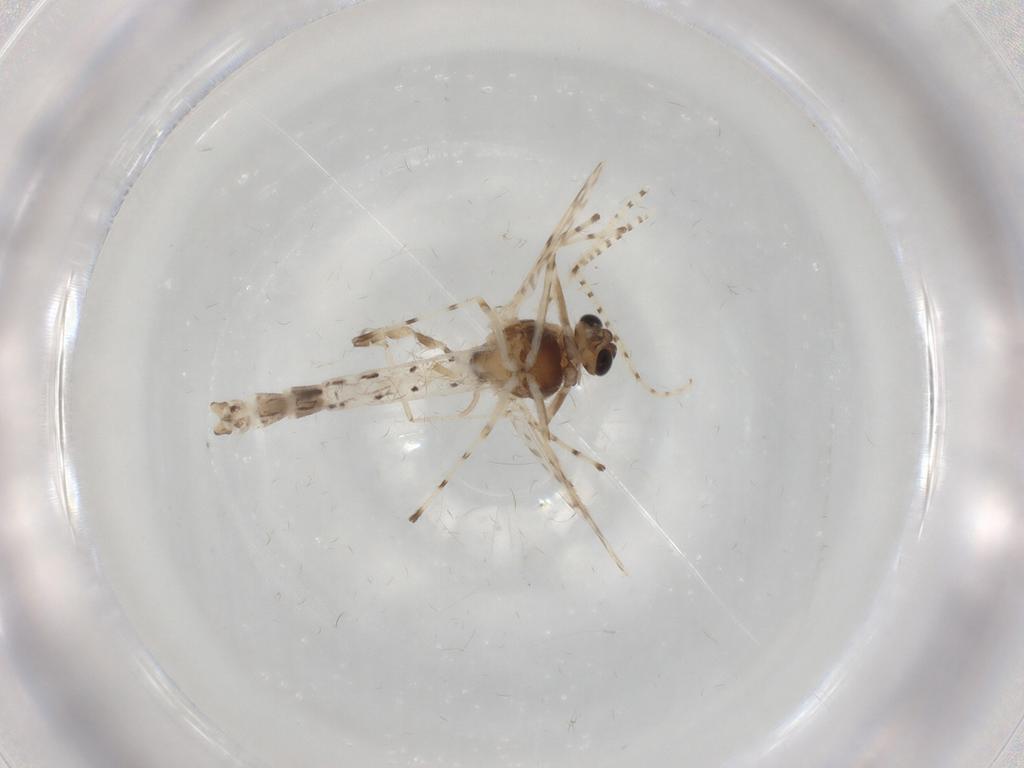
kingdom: Animalia
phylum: Arthropoda
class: Insecta
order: Diptera
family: Chironomidae
